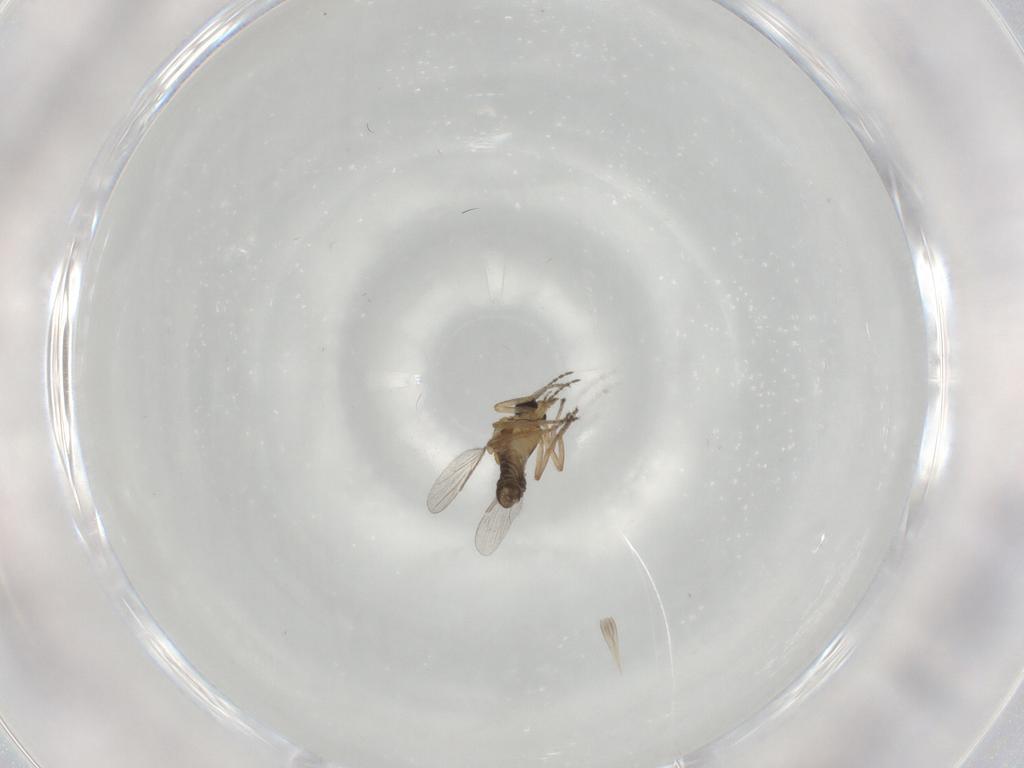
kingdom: Animalia
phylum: Arthropoda
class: Insecta
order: Diptera
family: Ceratopogonidae
